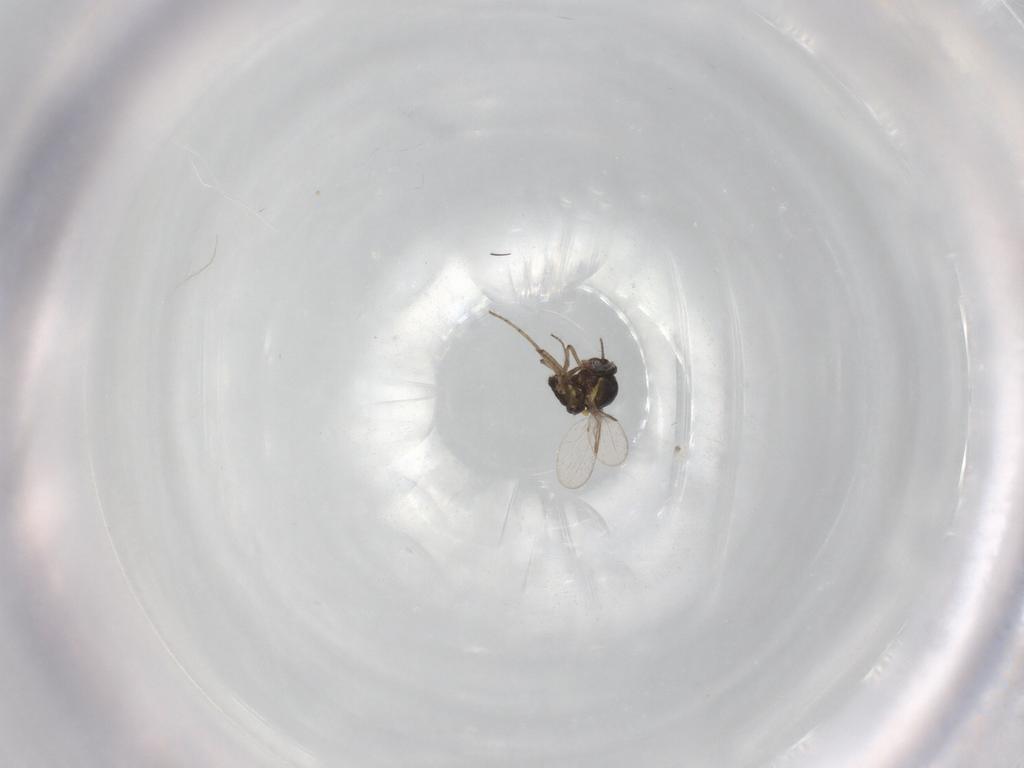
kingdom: Animalia
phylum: Arthropoda
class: Insecta
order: Diptera
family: Ceratopogonidae
